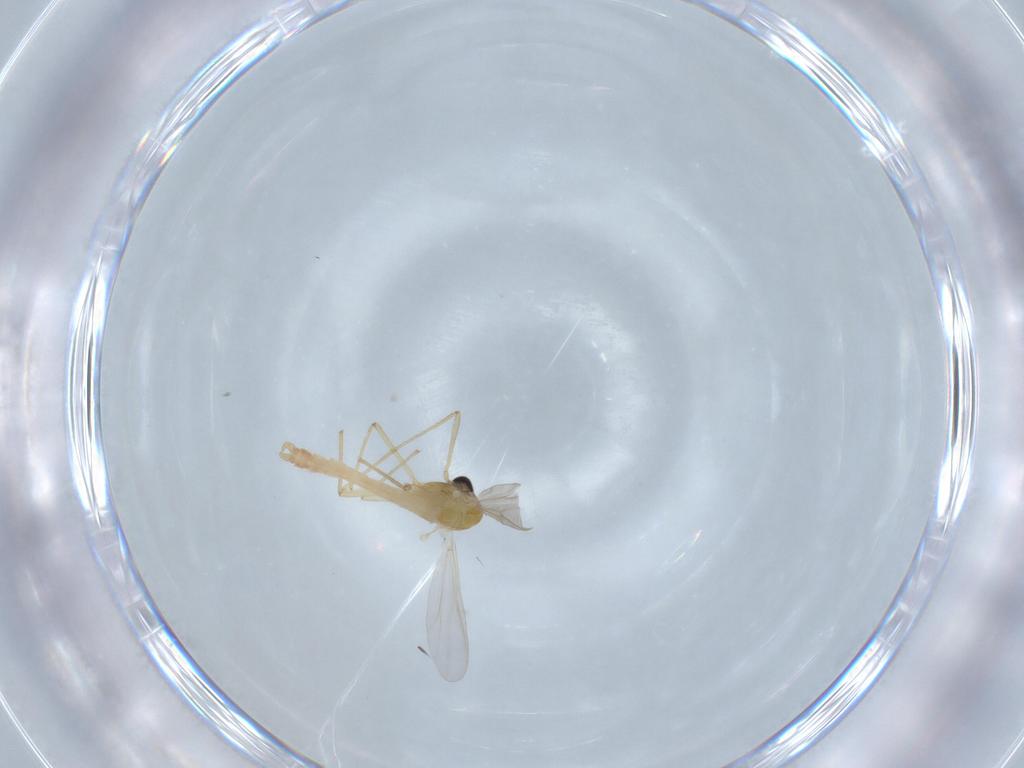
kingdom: Animalia
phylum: Arthropoda
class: Insecta
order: Diptera
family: Chironomidae
